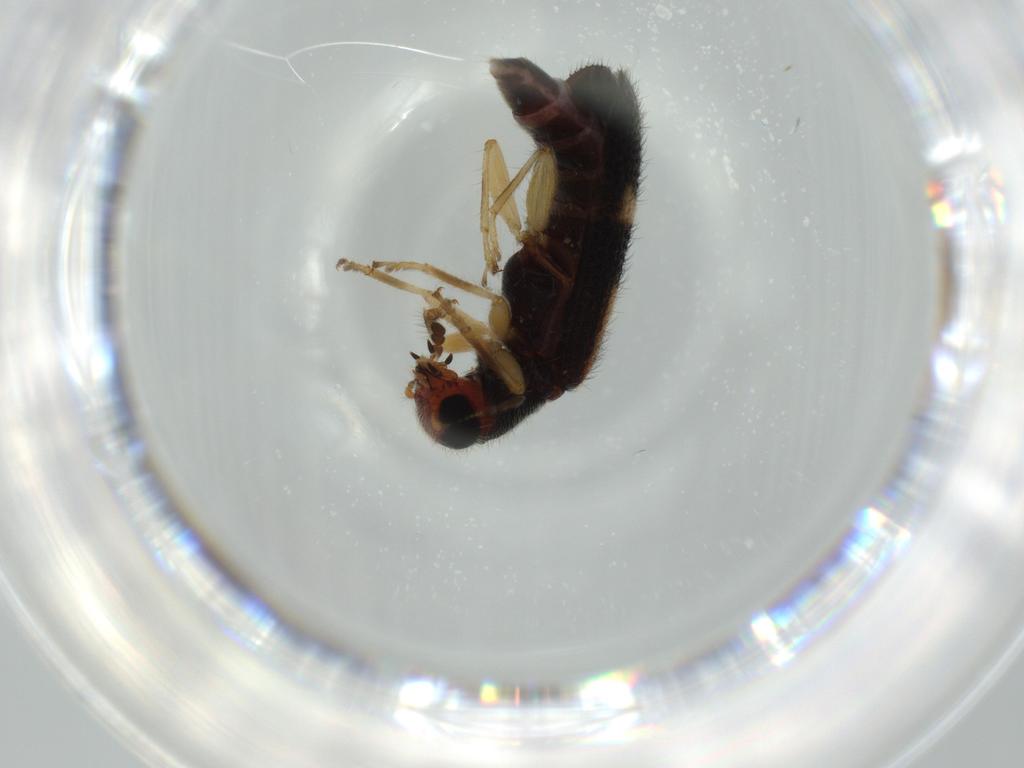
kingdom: Animalia
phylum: Arthropoda
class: Insecta
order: Coleoptera
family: Cleridae
